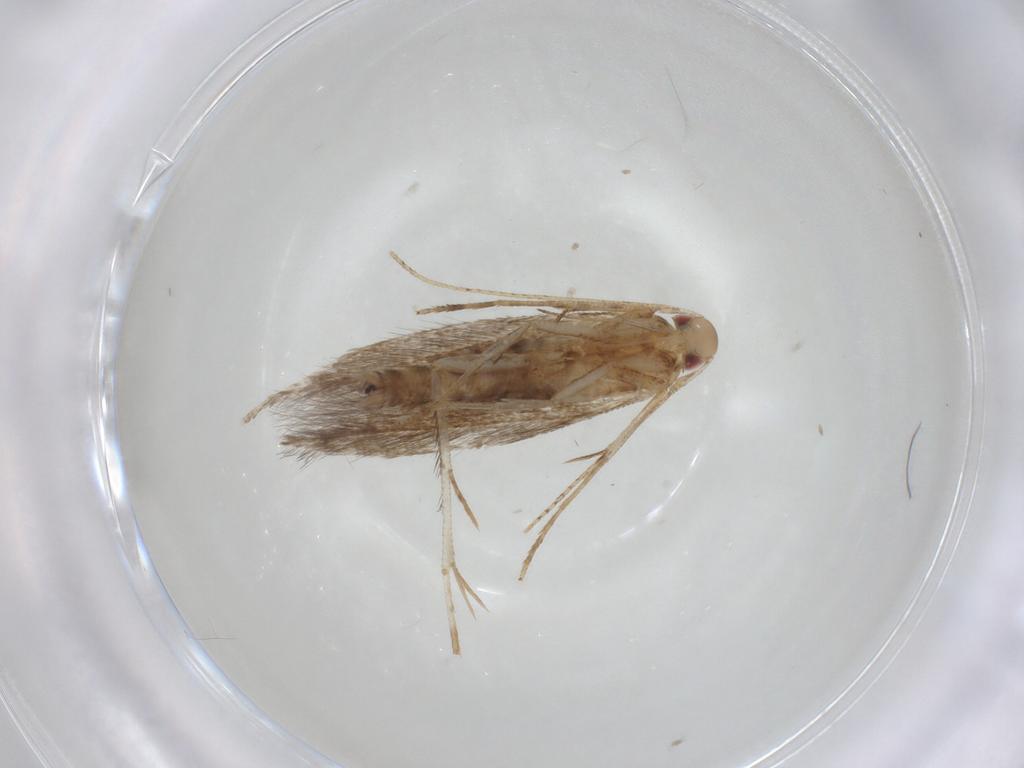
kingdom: Animalia
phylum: Arthropoda
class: Insecta
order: Lepidoptera
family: Cosmopterigidae
